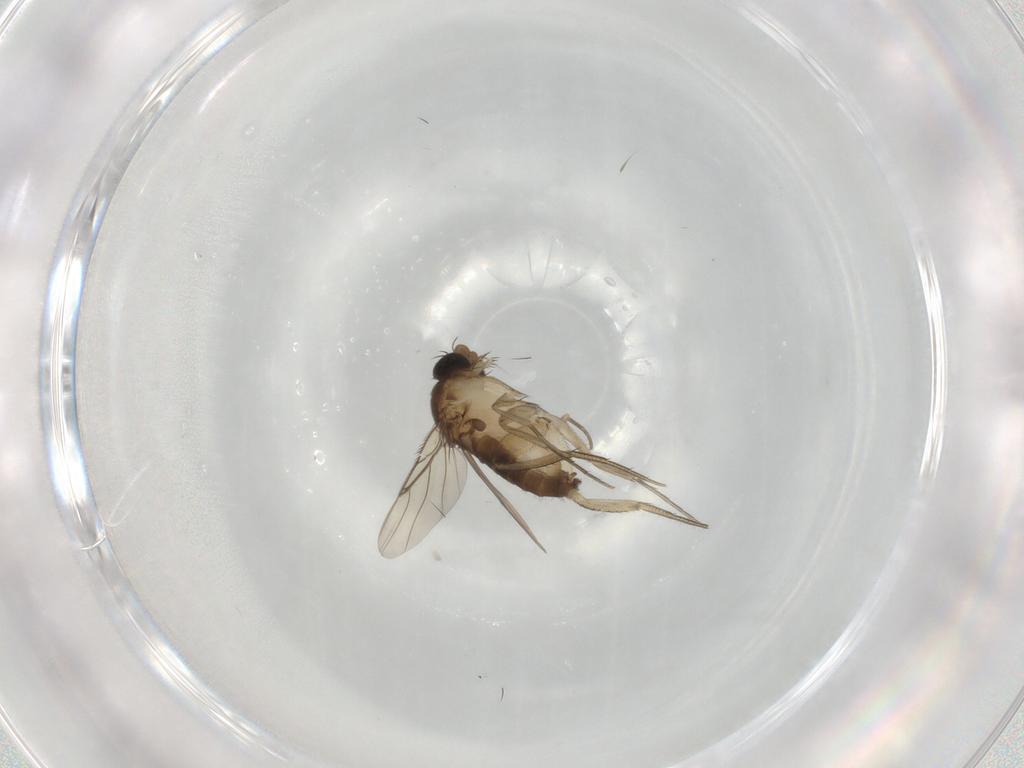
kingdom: Animalia
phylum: Arthropoda
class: Insecta
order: Diptera
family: Phoridae
